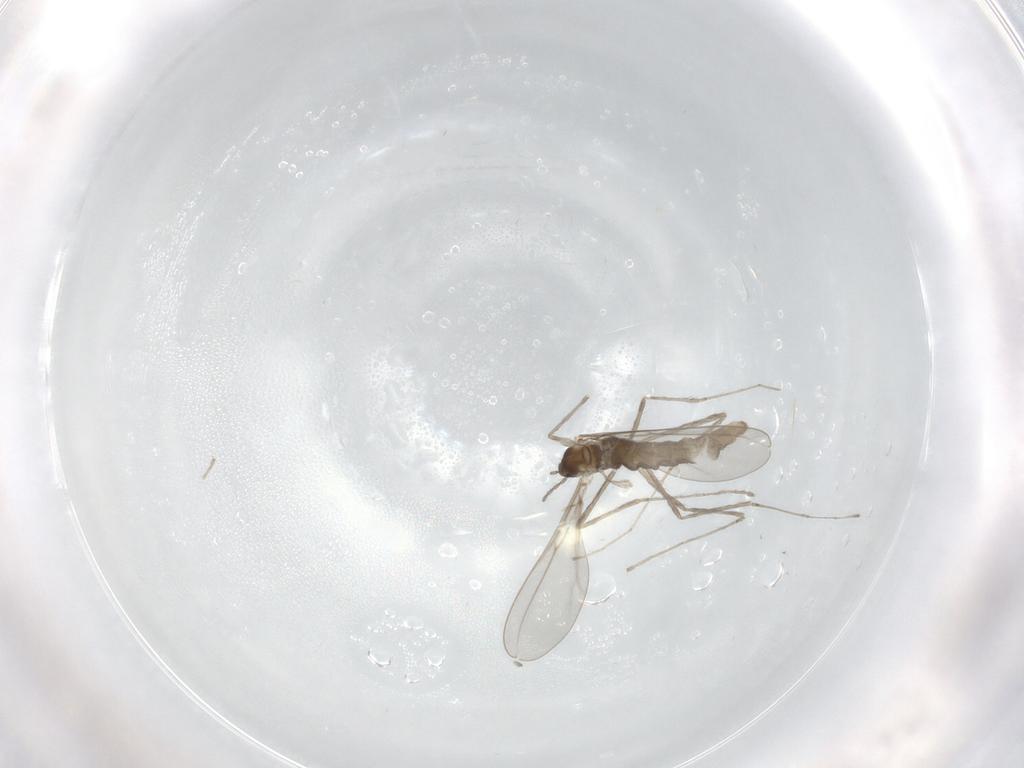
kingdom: Animalia
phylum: Arthropoda
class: Insecta
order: Diptera
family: Cecidomyiidae
